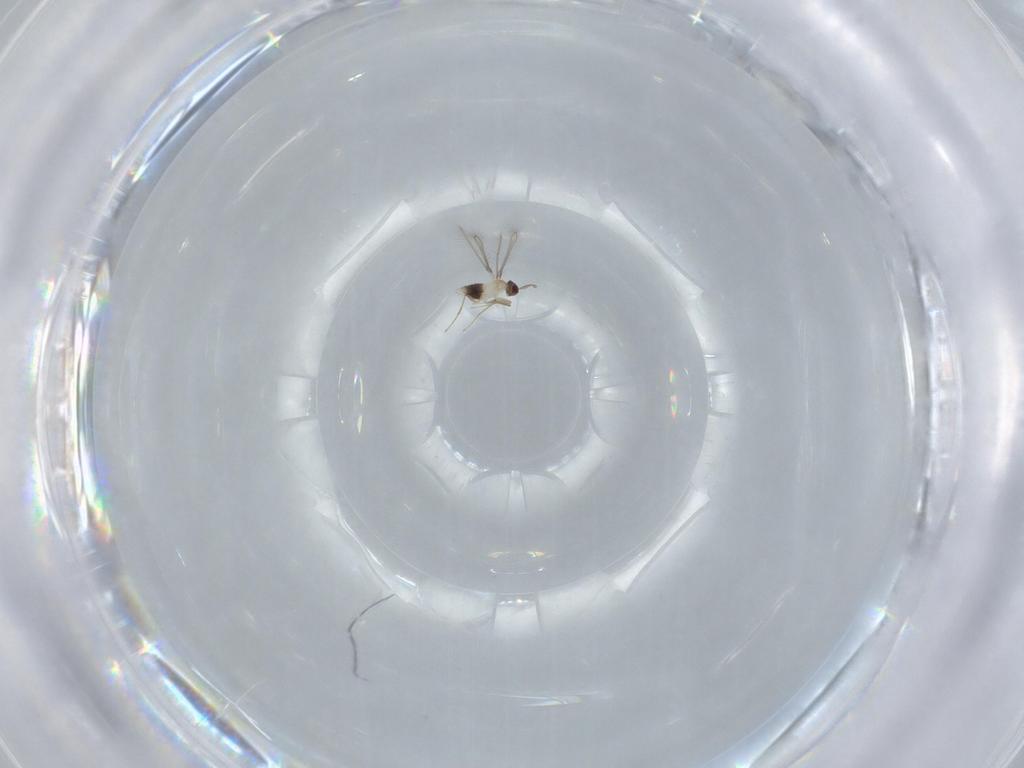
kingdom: Animalia
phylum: Arthropoda
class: Insecta
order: Hymenoptera
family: Mymaridae
